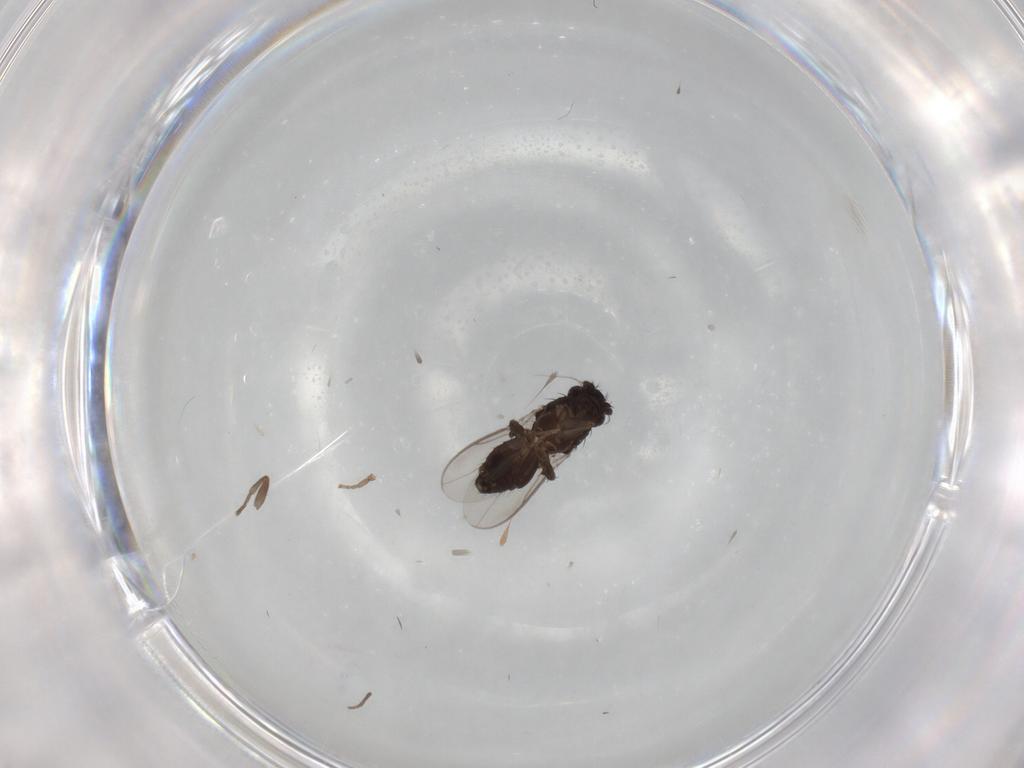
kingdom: Animalia
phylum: Arthropoda
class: Insecta
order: Diptera
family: Sphaeroceridae
